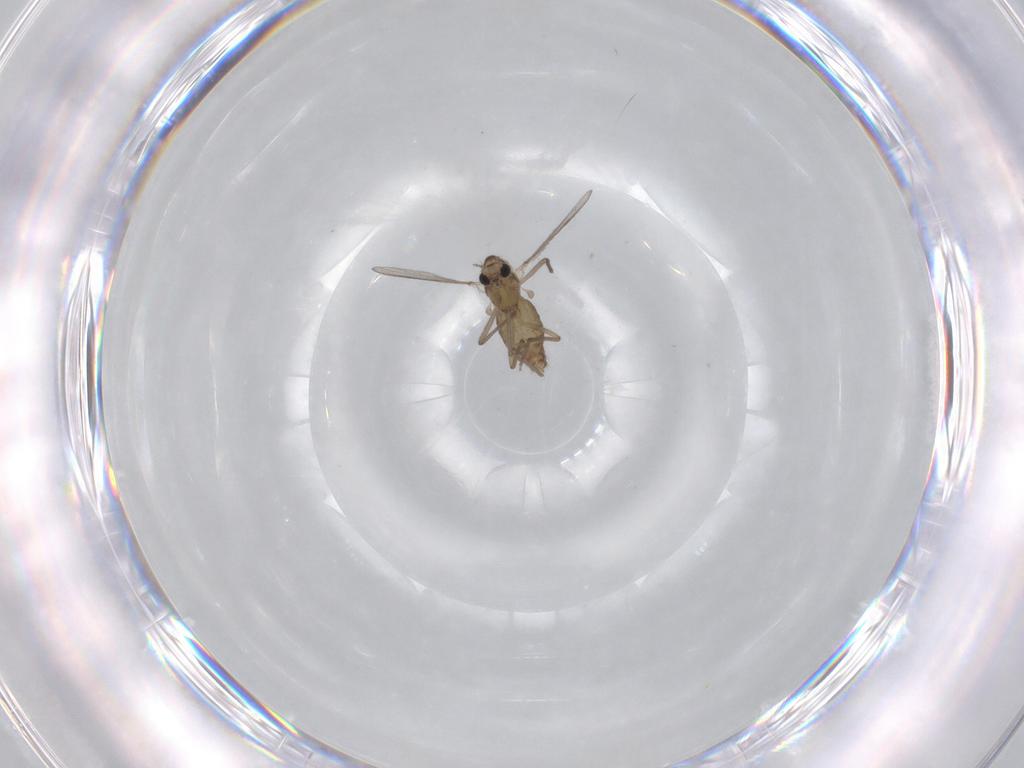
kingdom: Animalia
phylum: Arthropoda
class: Insecta
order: Diptera
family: Chironomidae
